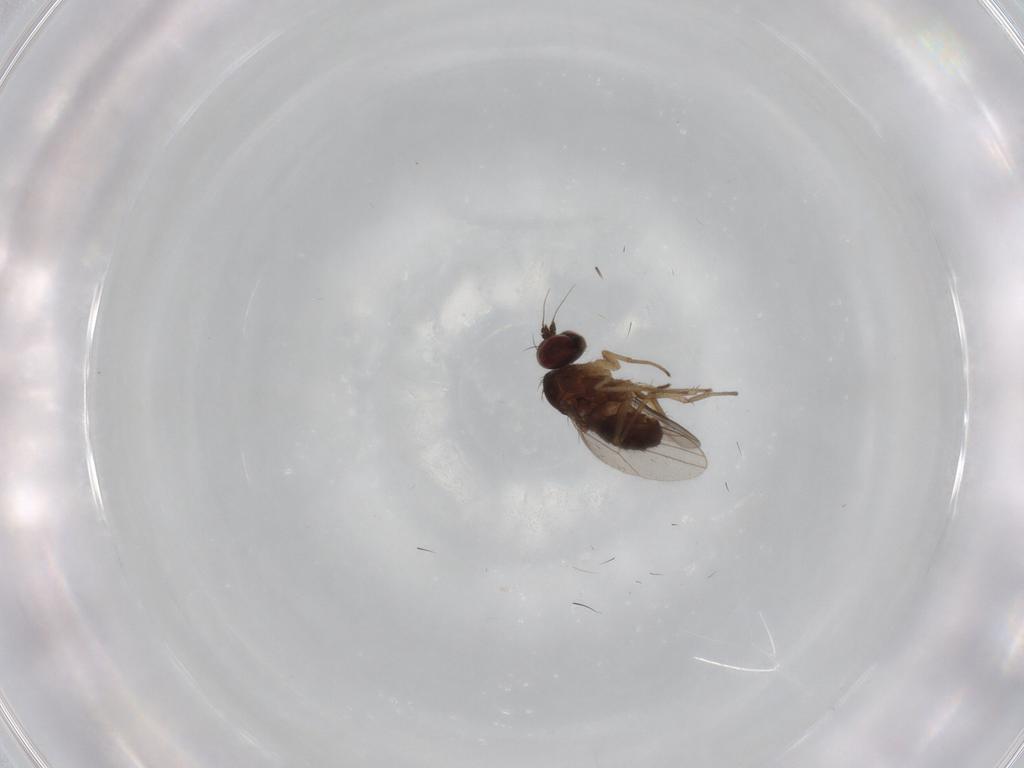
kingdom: Animalia
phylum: Arthropoda
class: Insecta
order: Diptera
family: Dolichopodidae
